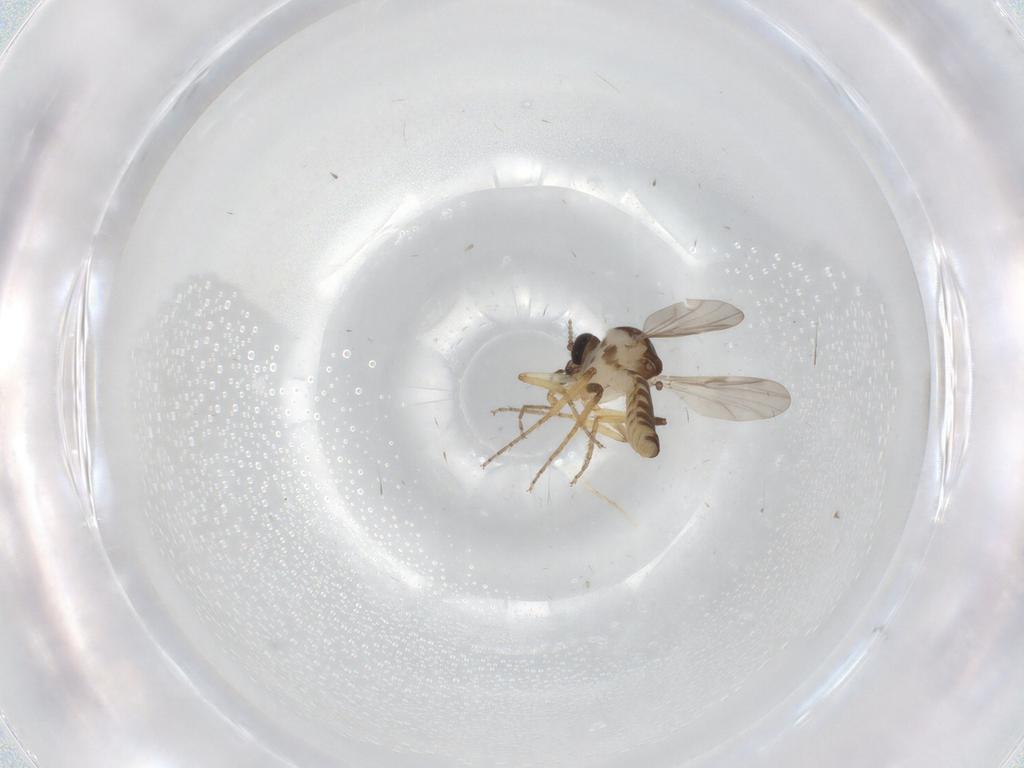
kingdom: Animalia
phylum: Arthropoda
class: Insecta
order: Diptera
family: Ceratopogonidae
